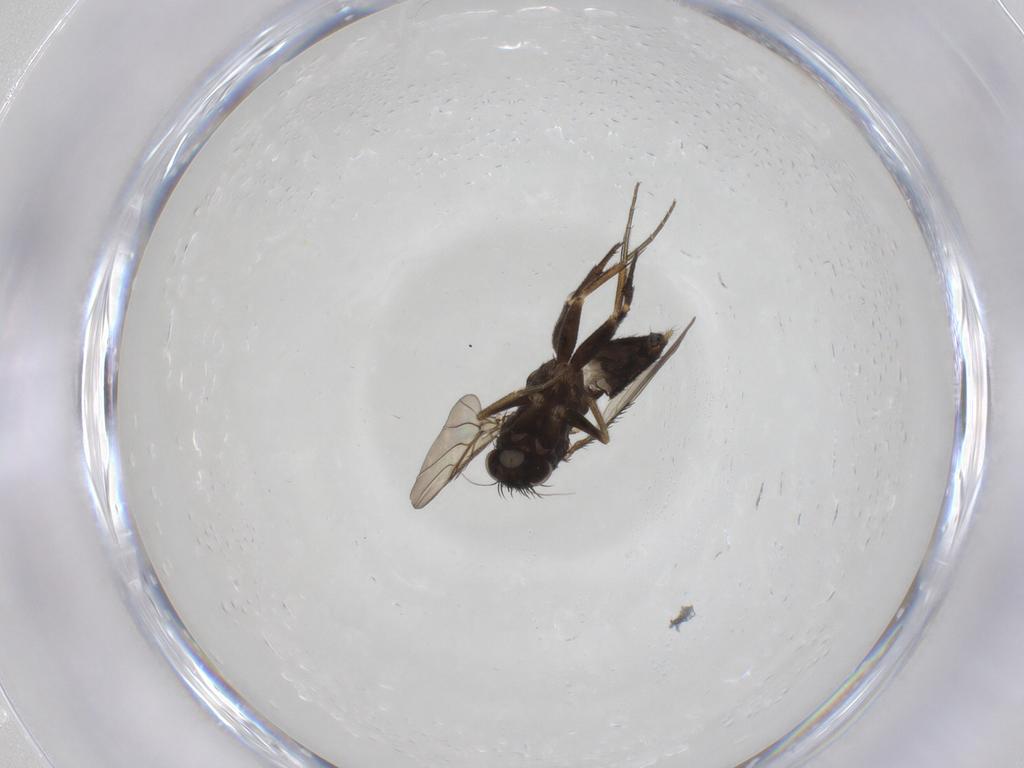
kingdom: Animalia
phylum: Arthropoda
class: Insecta
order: Diptera
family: Phoridae
